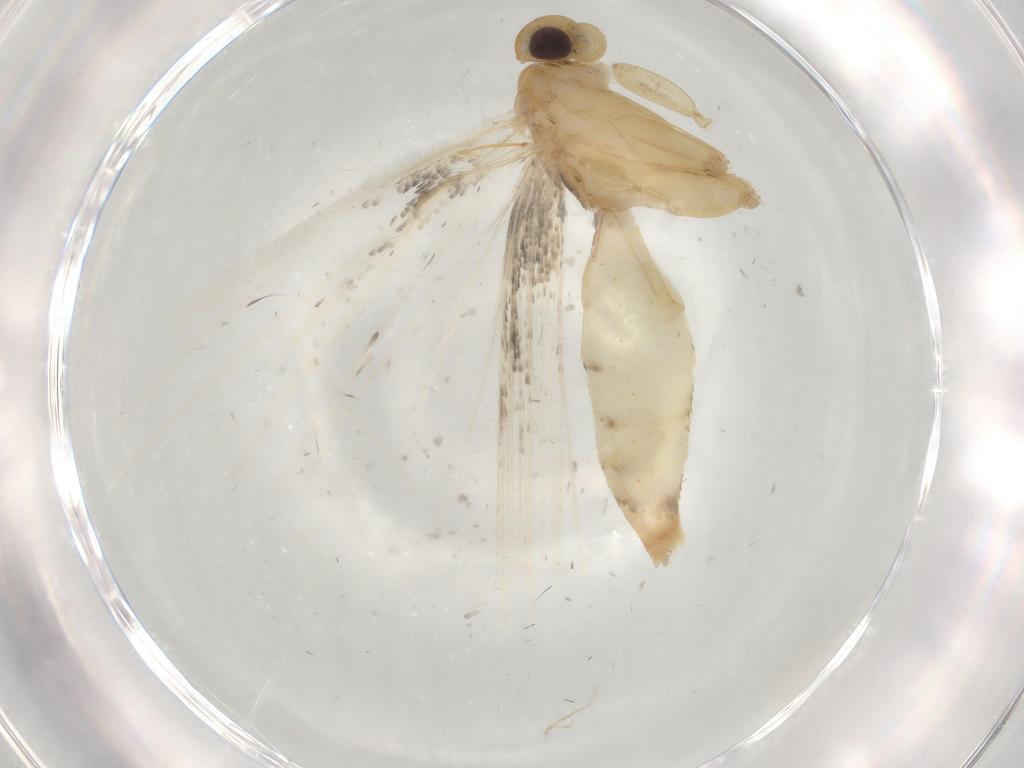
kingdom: Animalia
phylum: Arthropoda
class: Insecta
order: Lepidoptera
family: Alucitidae
